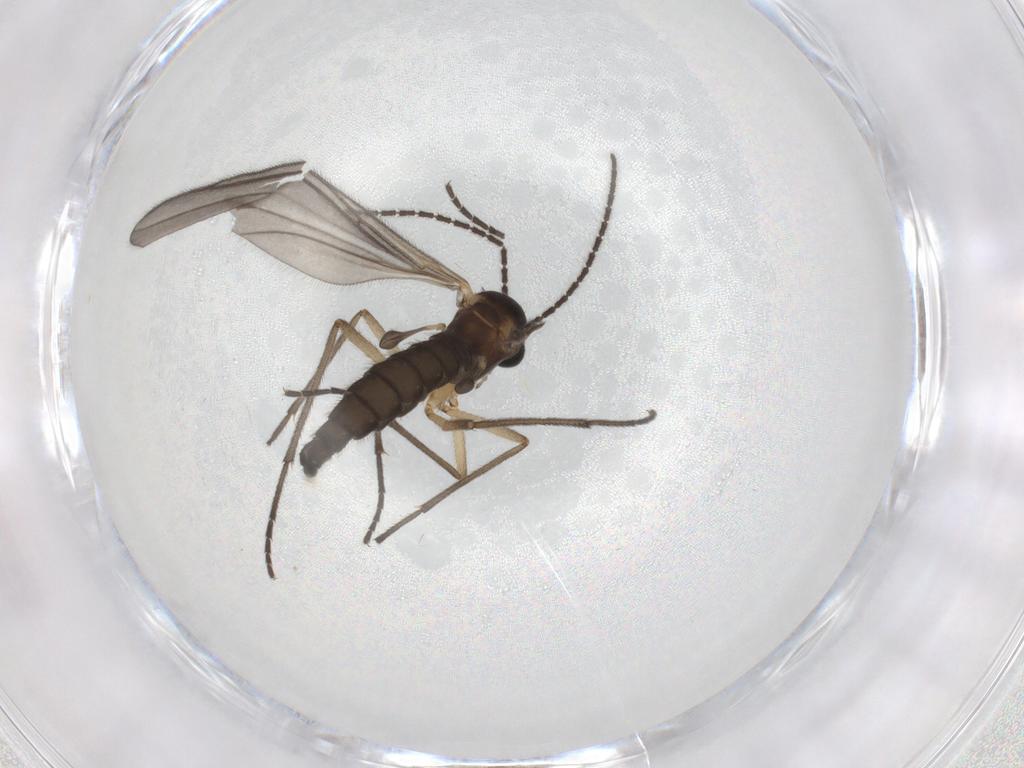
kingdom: Animalia
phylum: Arthropoda
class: Insecta
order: Diptera
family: Sciaridae
